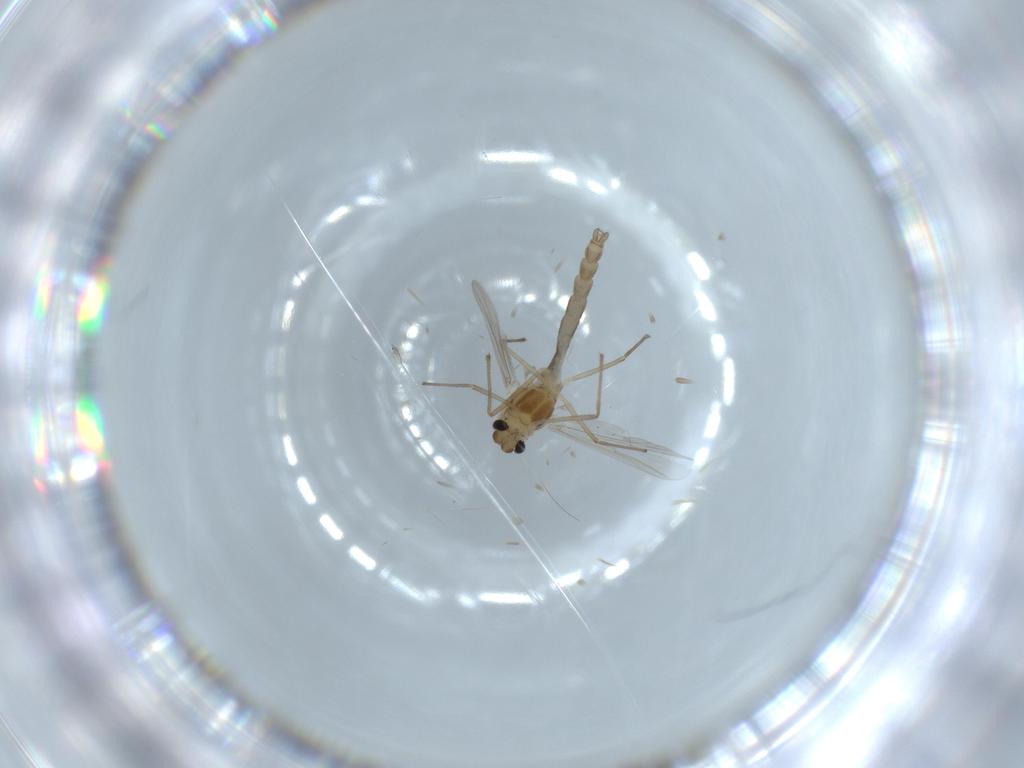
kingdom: Animalia
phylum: Arthropoda
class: Insecta
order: Diptera
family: Chironomidae
